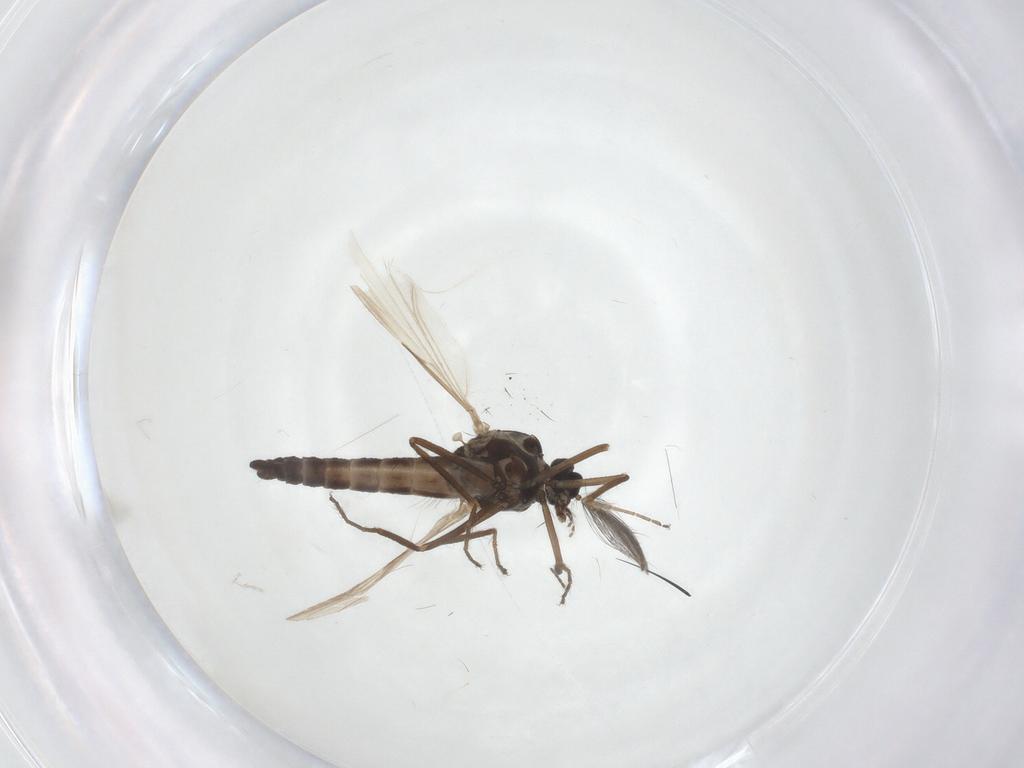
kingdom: Animalia
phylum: Arthropoda
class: Insecta
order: Diptera
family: Ceratopogonidae
